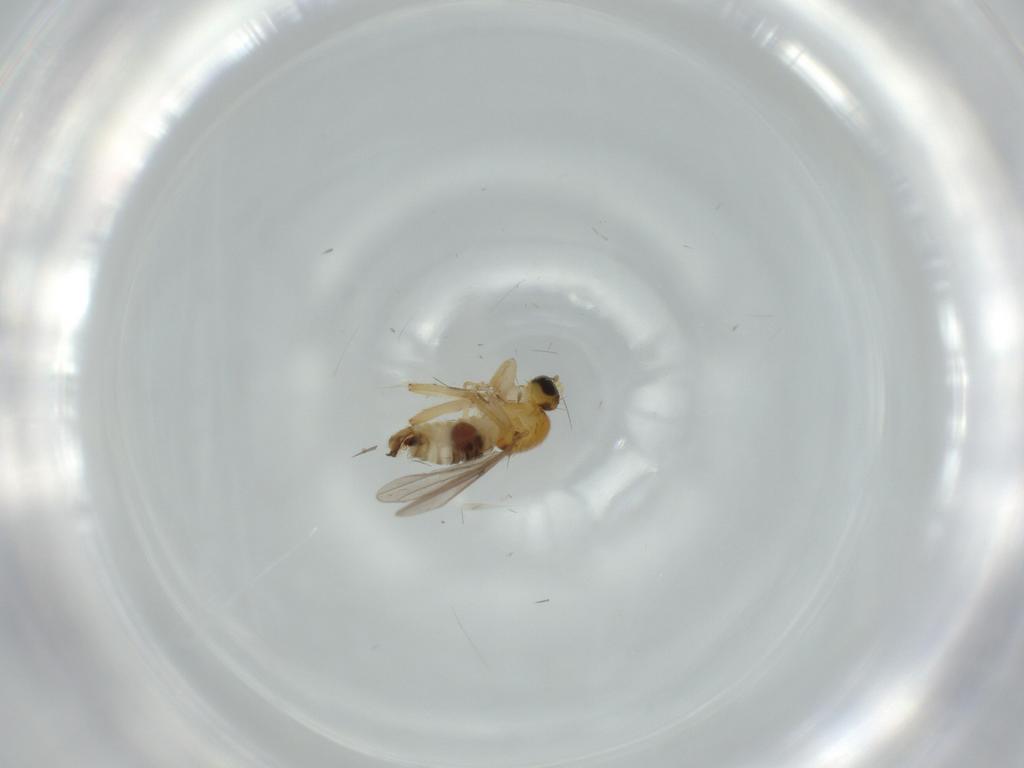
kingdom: Animalia
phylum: Arthropoda
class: Insecta
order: Diptera
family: Hybotidae
